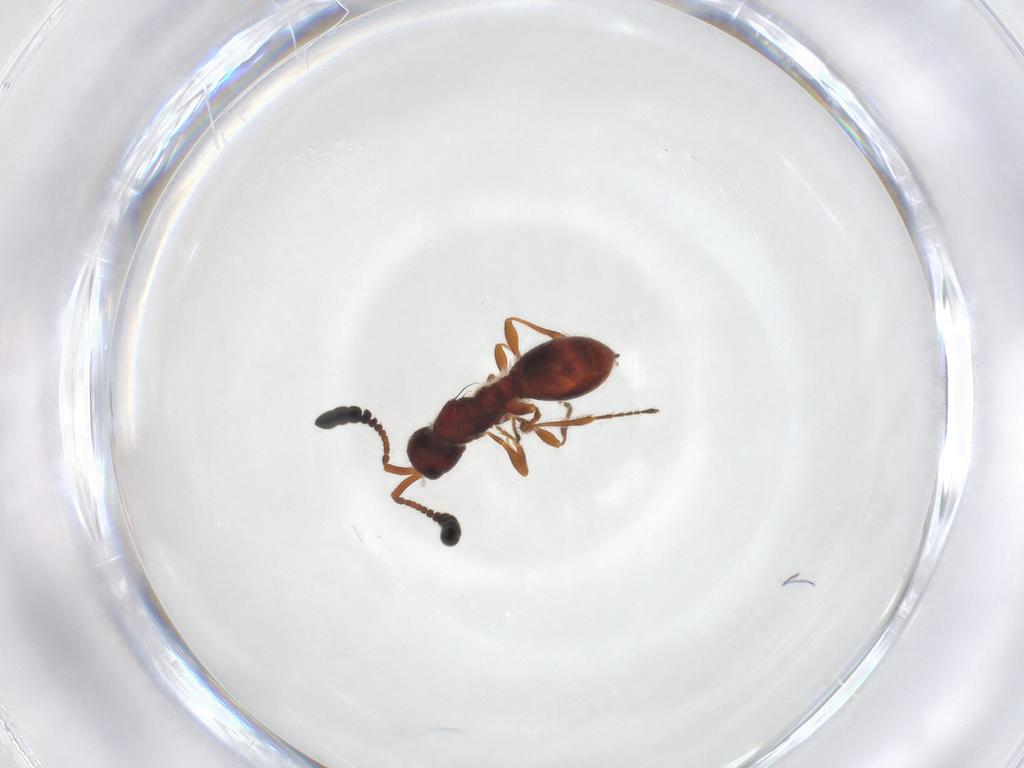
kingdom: Animalia
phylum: Arthropoda
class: Insecta
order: Hymenoptera
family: Diapriidae
